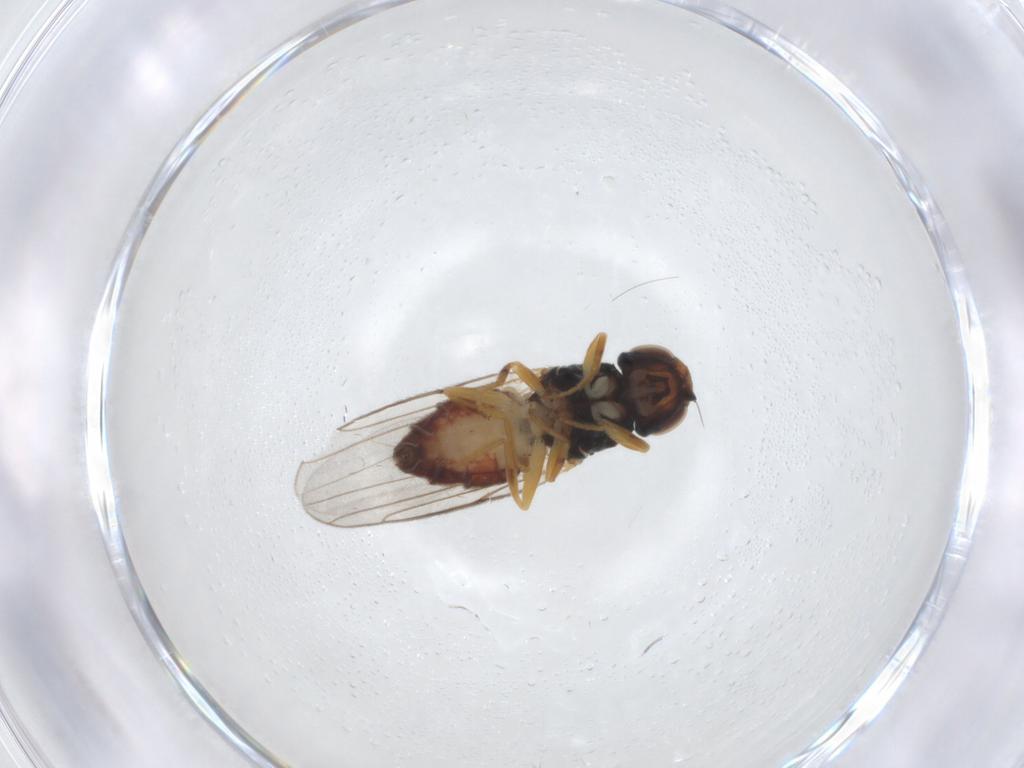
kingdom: Animalia
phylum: Arthropoda
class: Insecta
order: Diptera
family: Chloropidae
